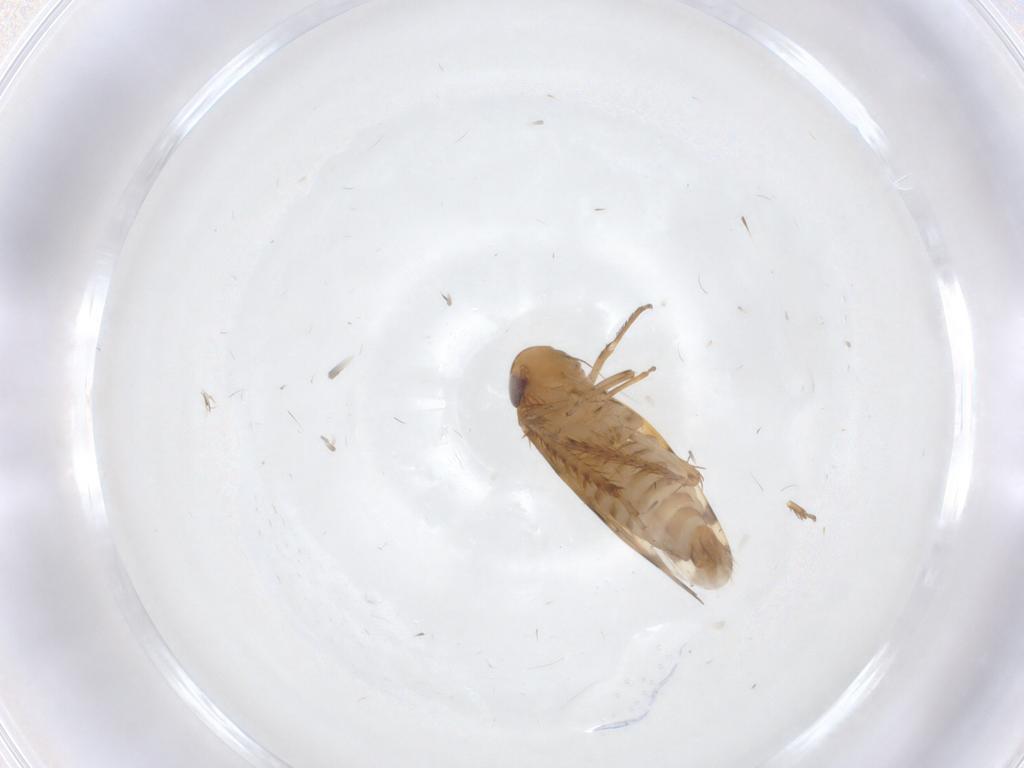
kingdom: Animalia
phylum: Arthropoda
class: Insecta
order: Hemiptera
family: Cicadellidae
